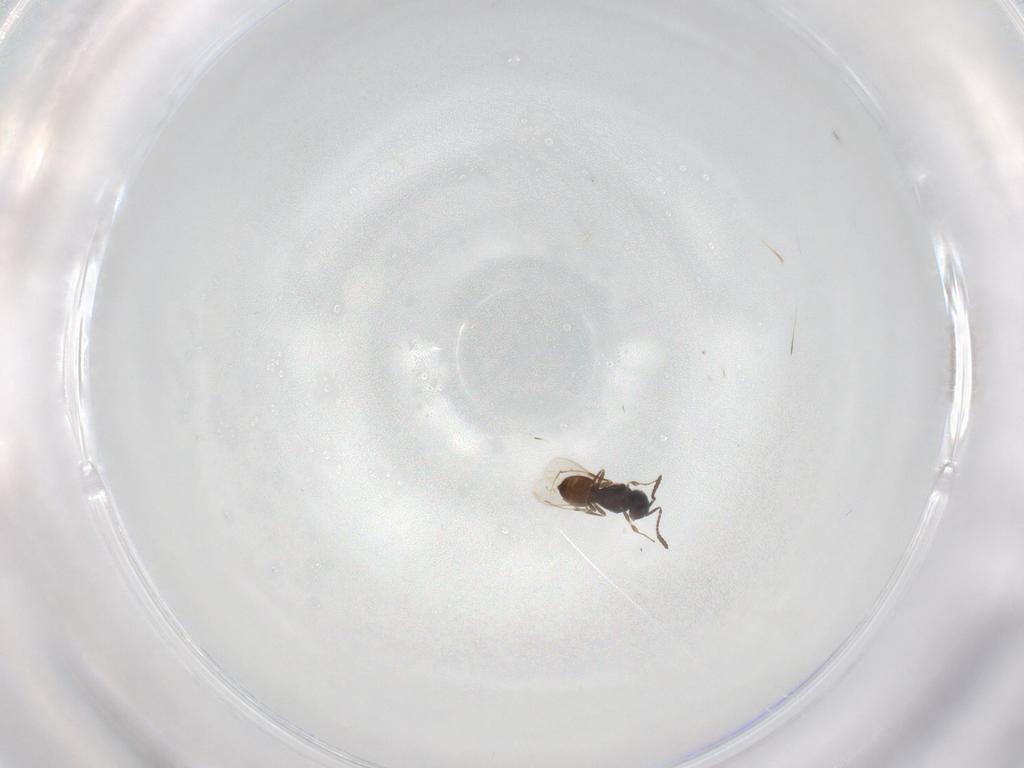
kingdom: Animalia
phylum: Arthropoda
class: Insecta
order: Hymenoptera
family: Scelionidae
